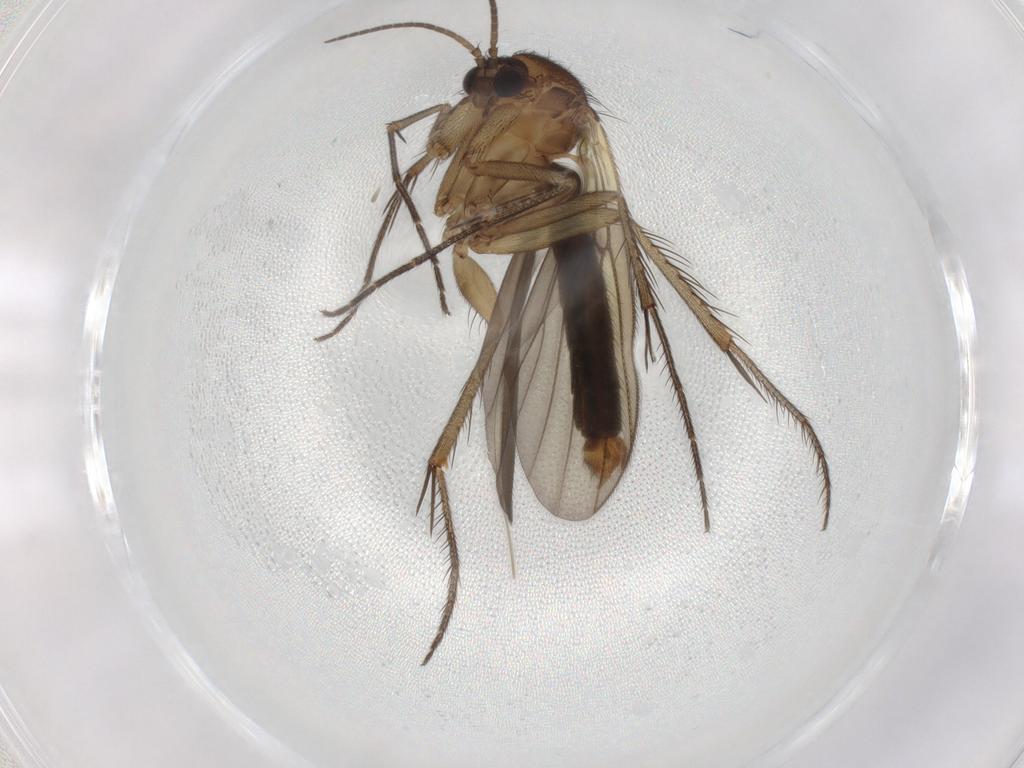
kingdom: Animalia
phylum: Arthropoda
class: Insecta
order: Diptera
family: Mycetophilidae
